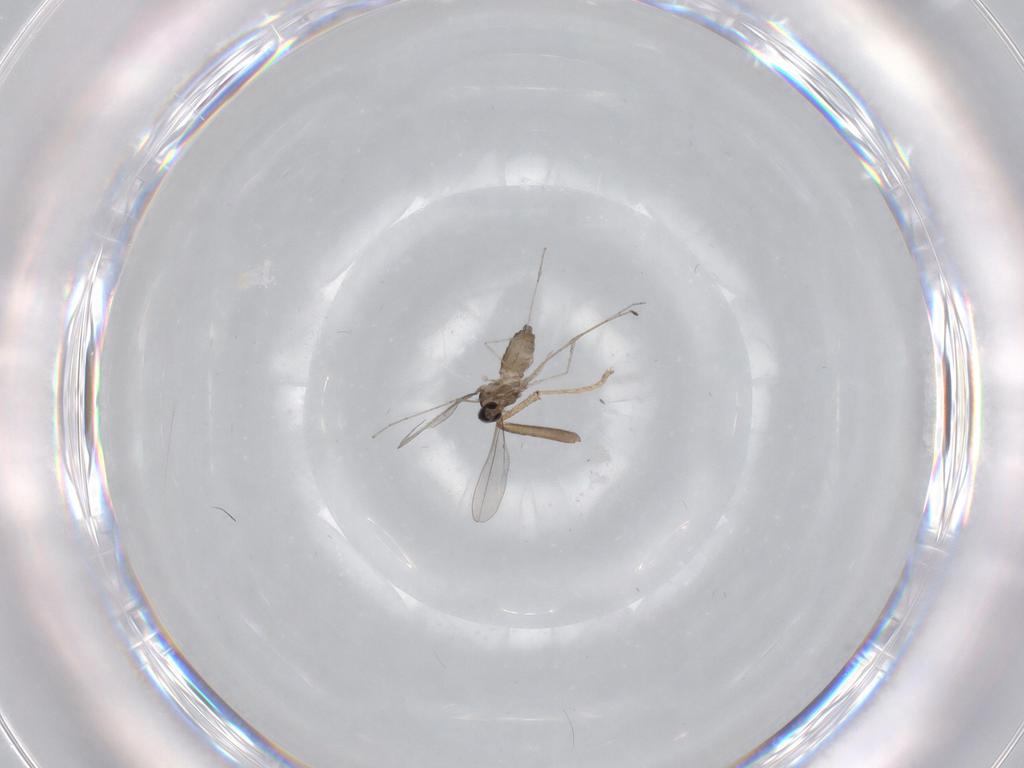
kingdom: Animalia
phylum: Arthropoda
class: Insecta
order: Diptera
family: Cecidomyiidae
